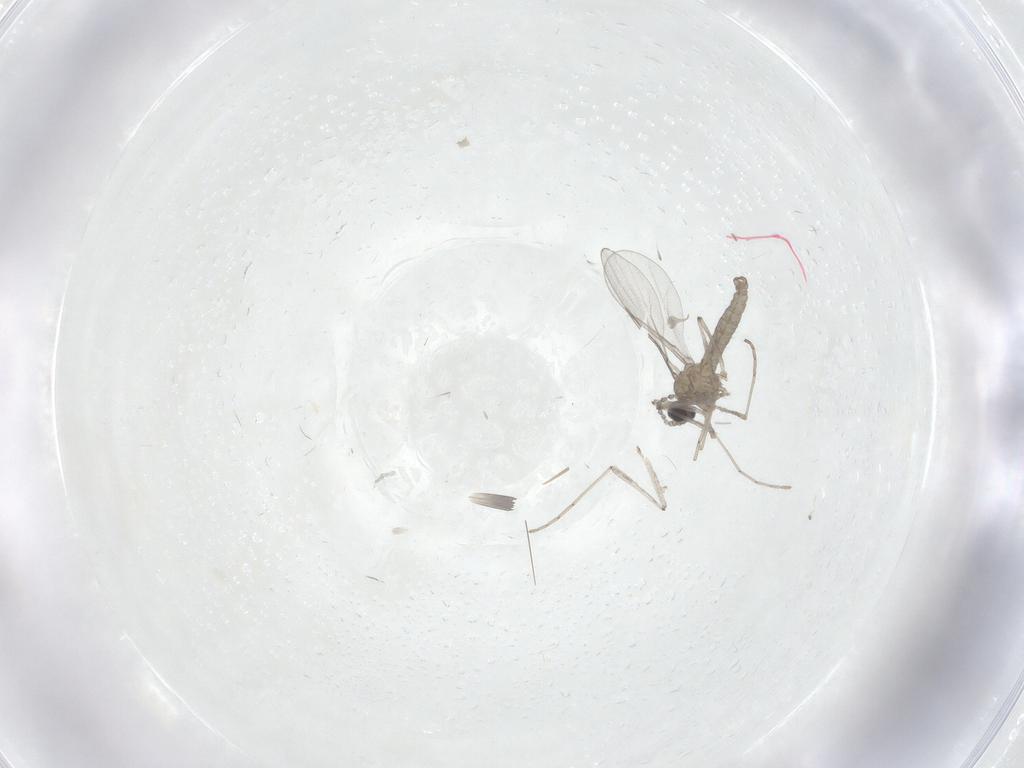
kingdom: Animalia
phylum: Arthropoda
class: Insecta
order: Diptera
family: Cecidomyiidae
